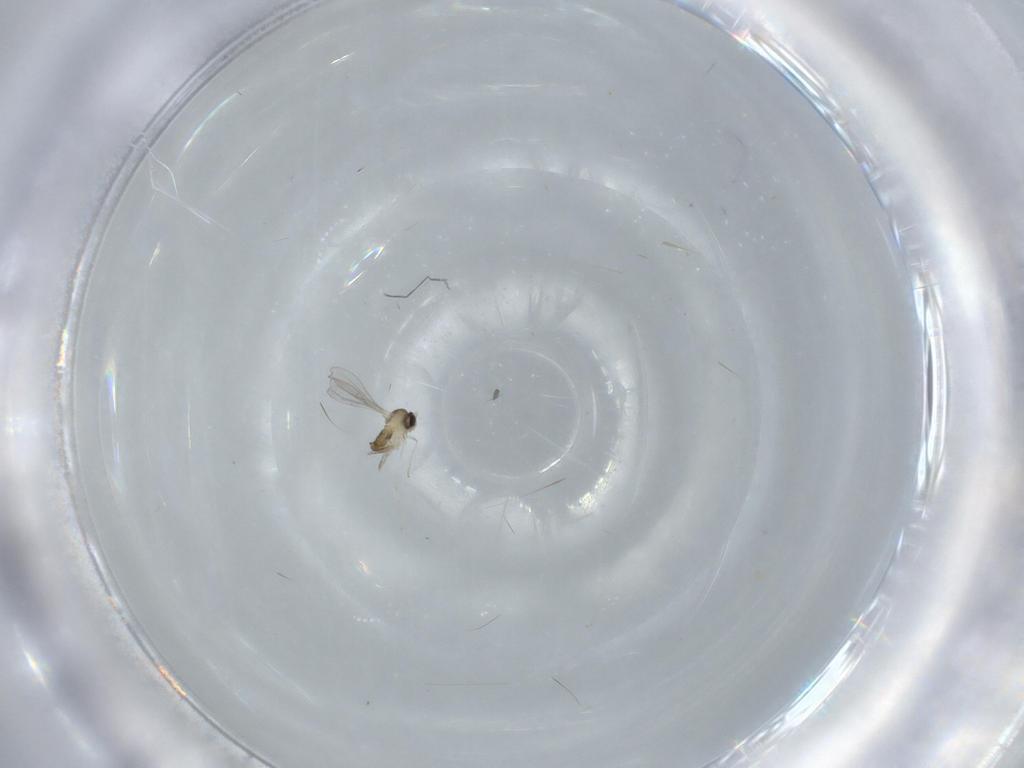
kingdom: Animalia
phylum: Arthropoda
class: Insecta
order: Diptera
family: Cecidomyiidae
